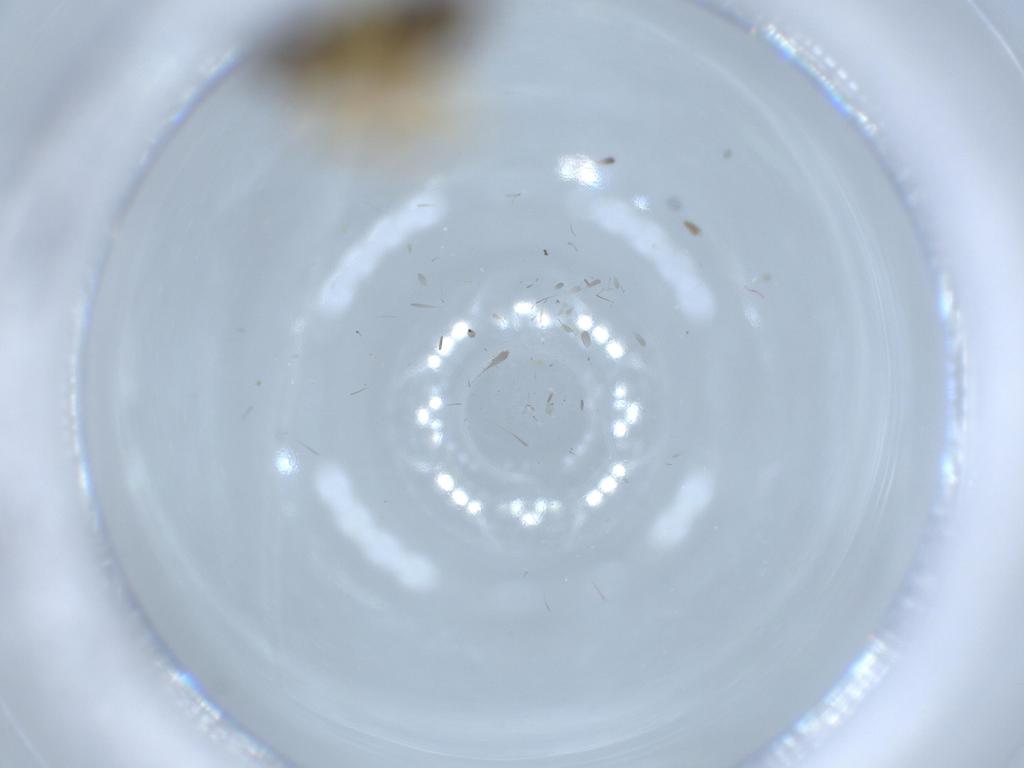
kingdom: Animalia
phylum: Arthropoda
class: Insecta
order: Hemiptera
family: Cicadellidae
